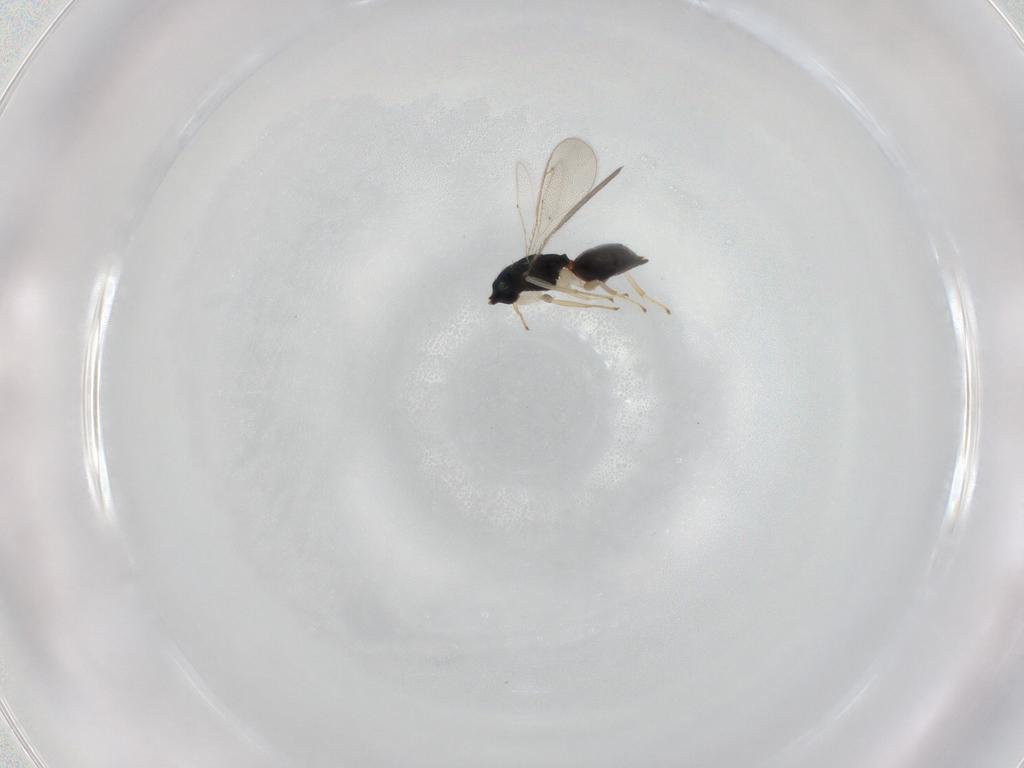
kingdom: Animalia
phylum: Arthropoda
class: Insecta
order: Hymenoptera
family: Eulophidae
